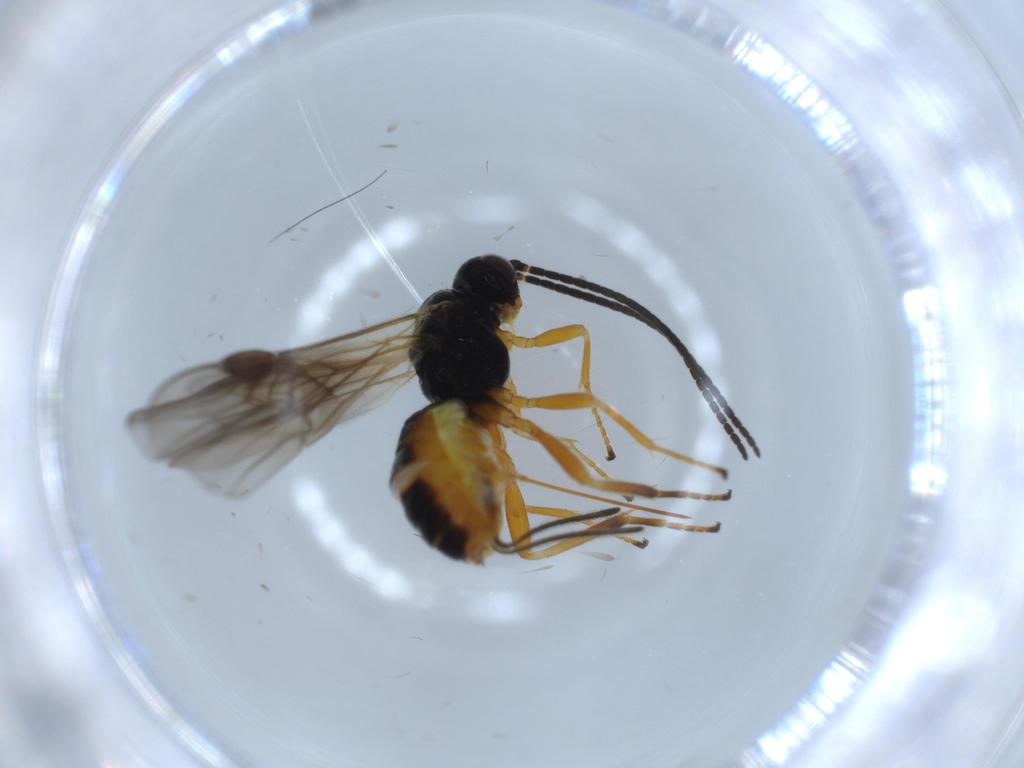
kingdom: Animalia
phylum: Arthropoda
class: Insecta
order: Hymenoptera
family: Braconidae
